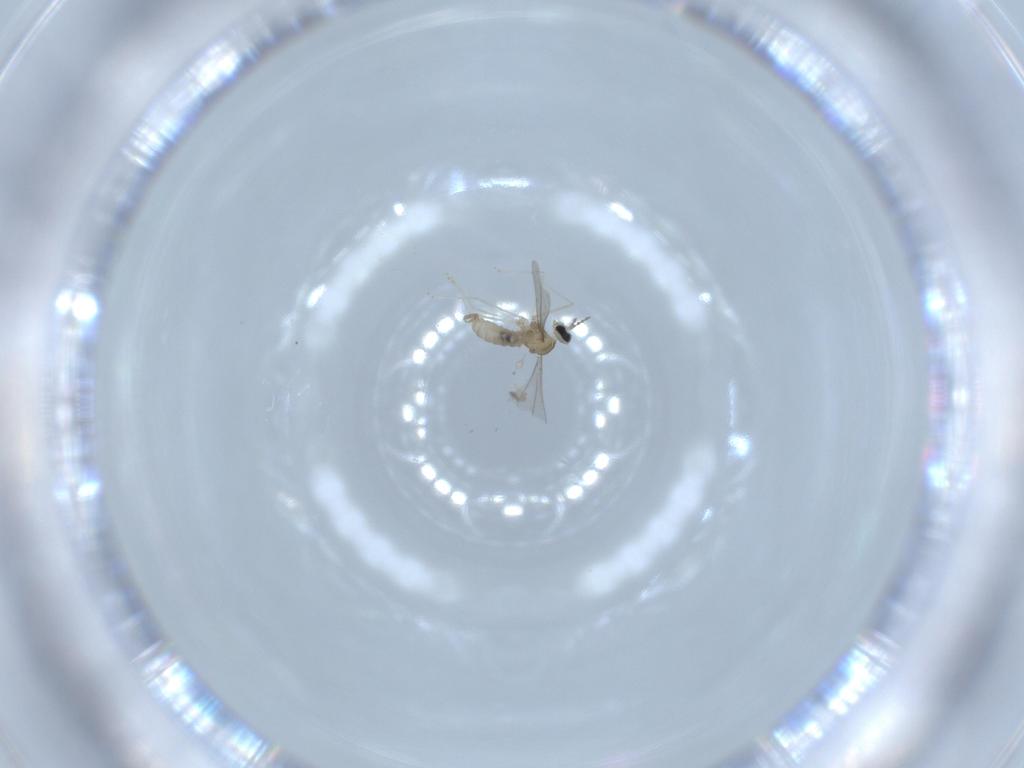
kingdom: Animalia
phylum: Arthropoda
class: Insecta
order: Diptera
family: Cecidomyiidae
